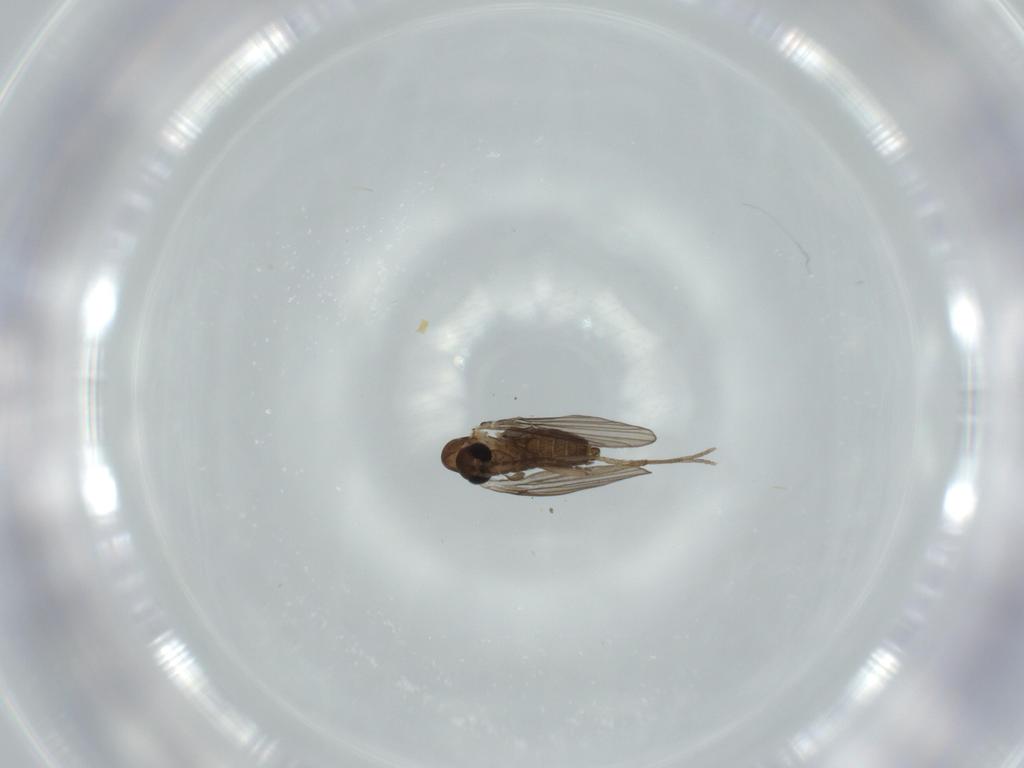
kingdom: Animalia
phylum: Arthropoda
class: Insecta
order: Diptera
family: Psychodidae
